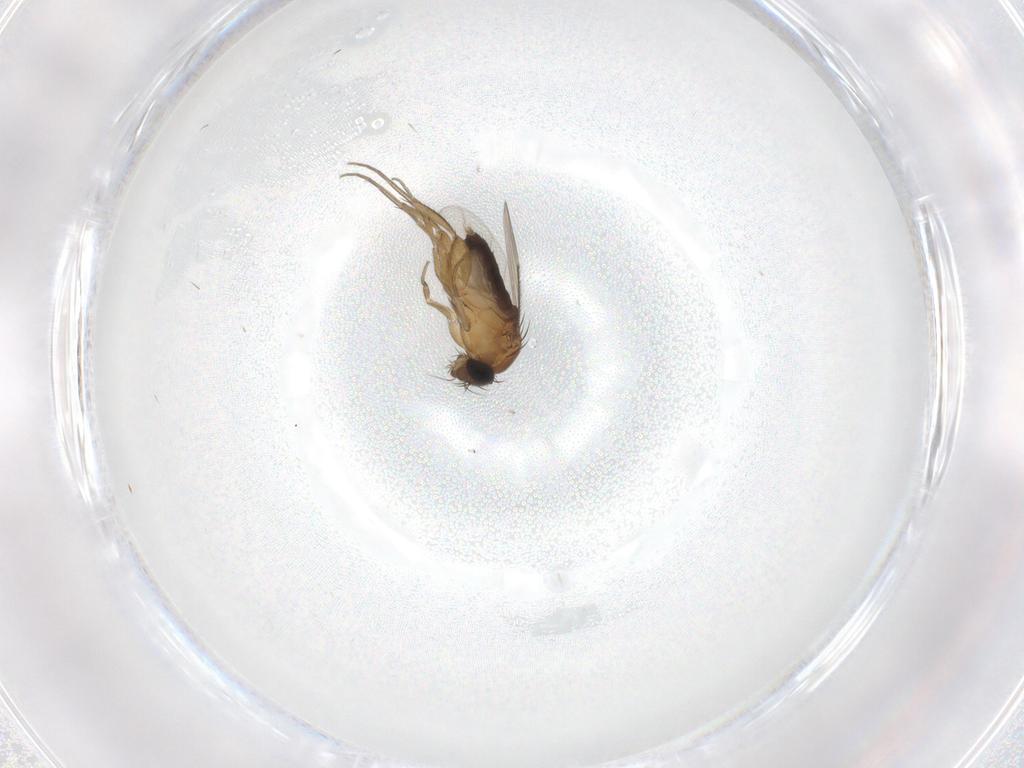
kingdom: Animalia
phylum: Arthropoda
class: Insecta
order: Diptera
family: Phoridae
